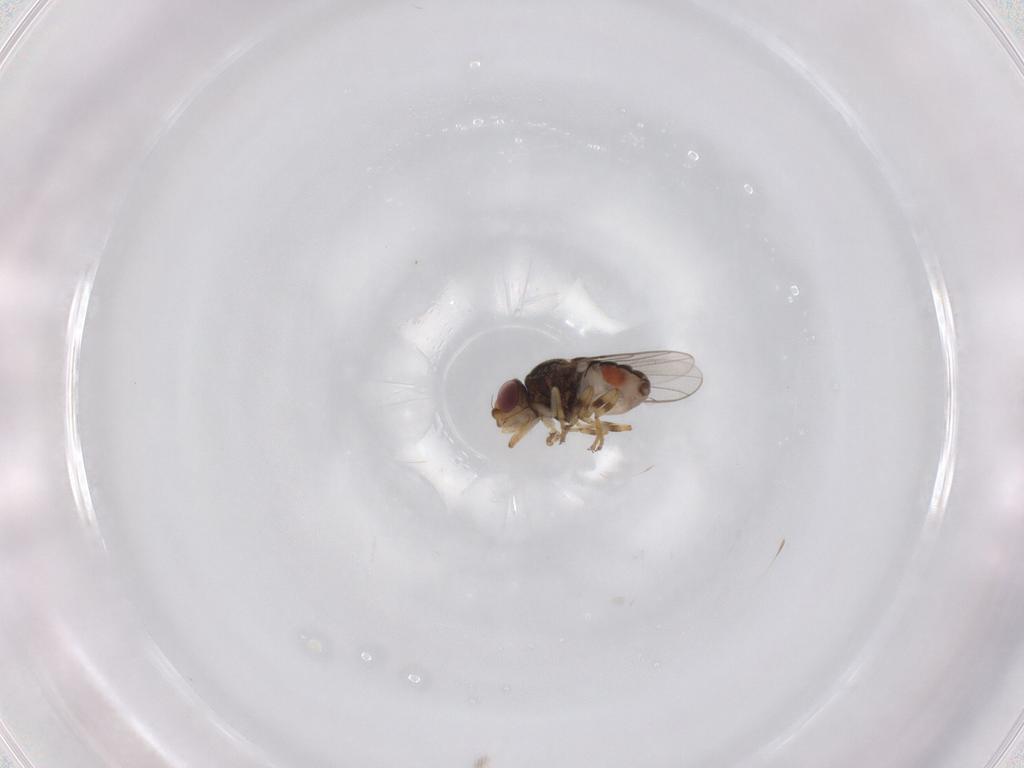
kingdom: Animalia
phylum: Arthropoda
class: Insecta
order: Diptera
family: Chloropidae
